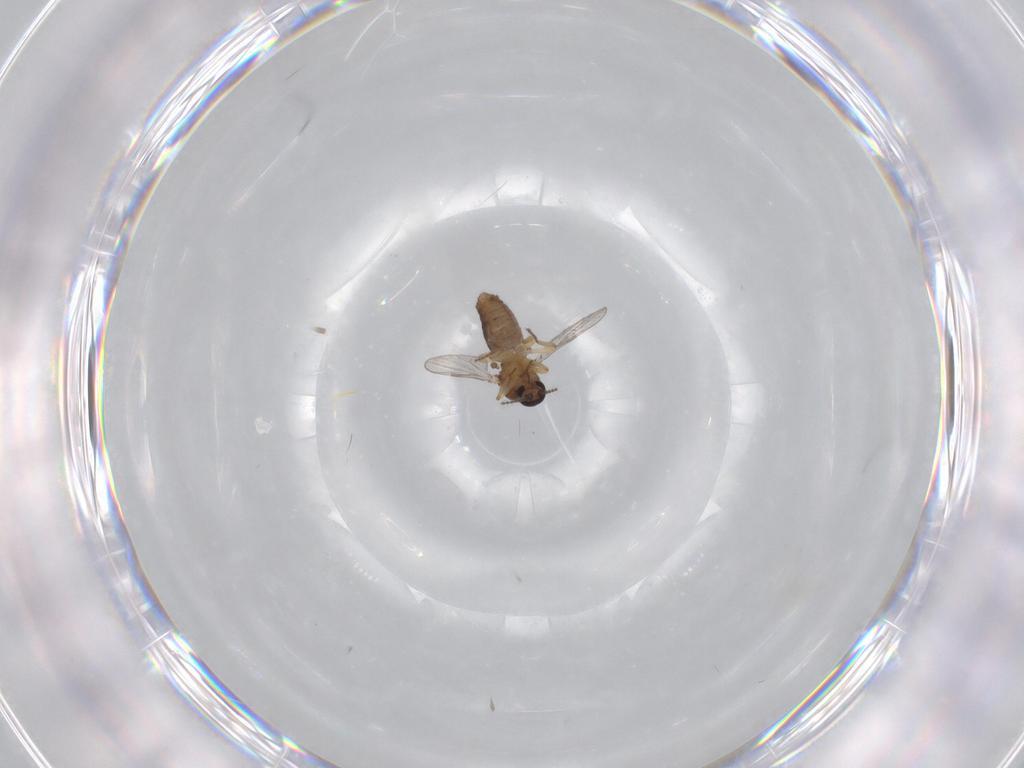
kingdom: Animalia
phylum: Arthropoda
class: Insecta
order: Diptera
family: Ceratopogonidae
